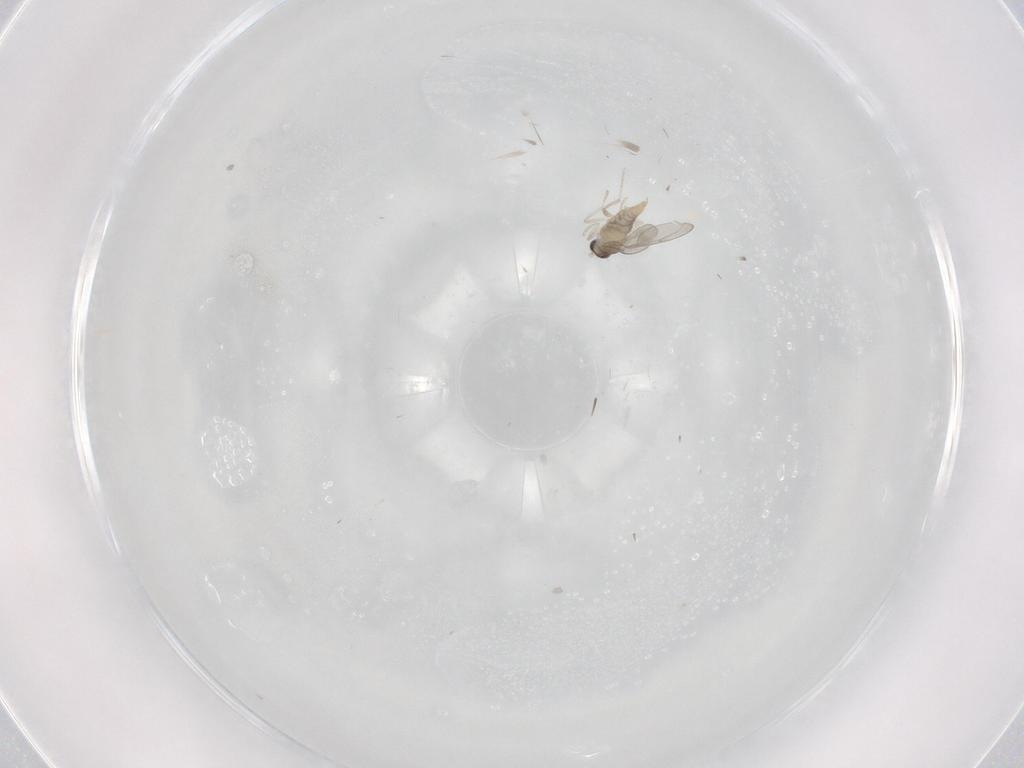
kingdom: Animalia
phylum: Arthropoda
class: Insecta
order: Diptera
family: Cecidomyiidae
